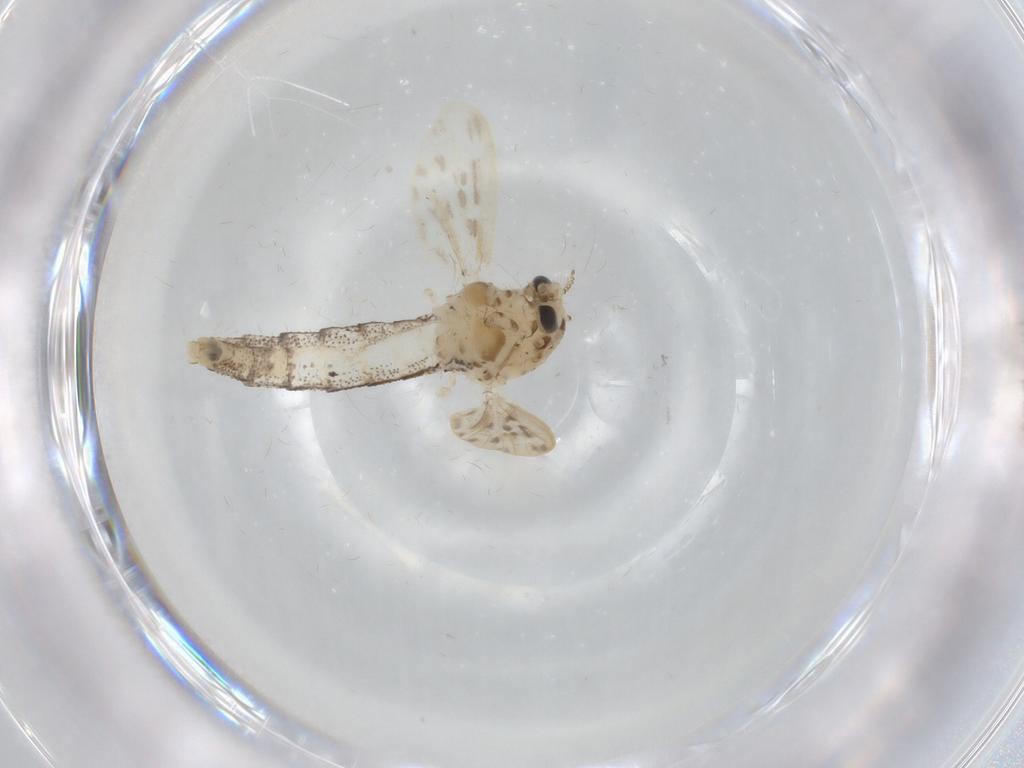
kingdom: Animalia
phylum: Arthropoda
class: Insecta
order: Diptera
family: Chaoboridae
